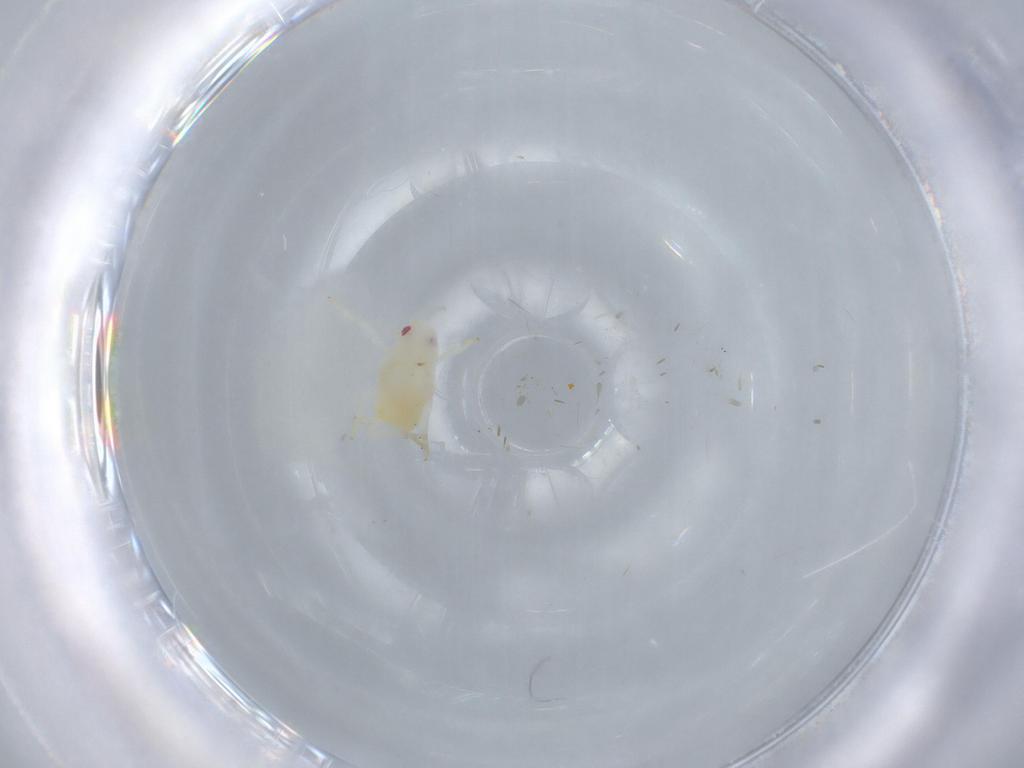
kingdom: Animalia
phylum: Arthropoda
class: Insecta
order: Hemiptera
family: Flatidae
